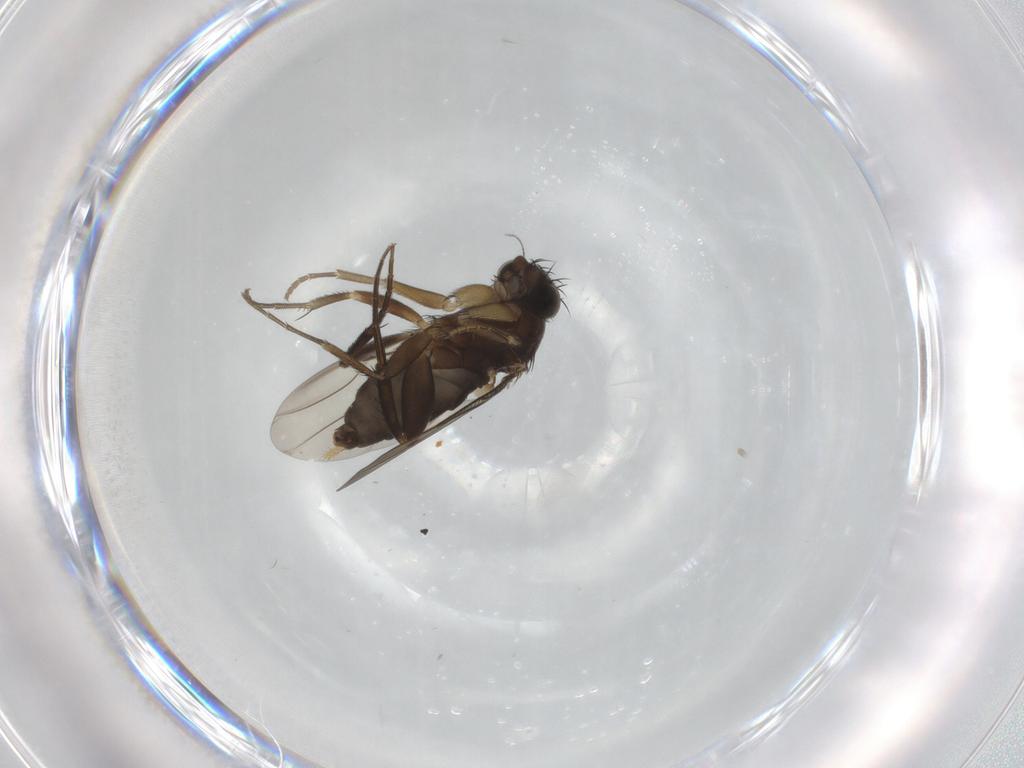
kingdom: Animalia
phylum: Arthropoda
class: Insecta
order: Diptera
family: Phoridae
